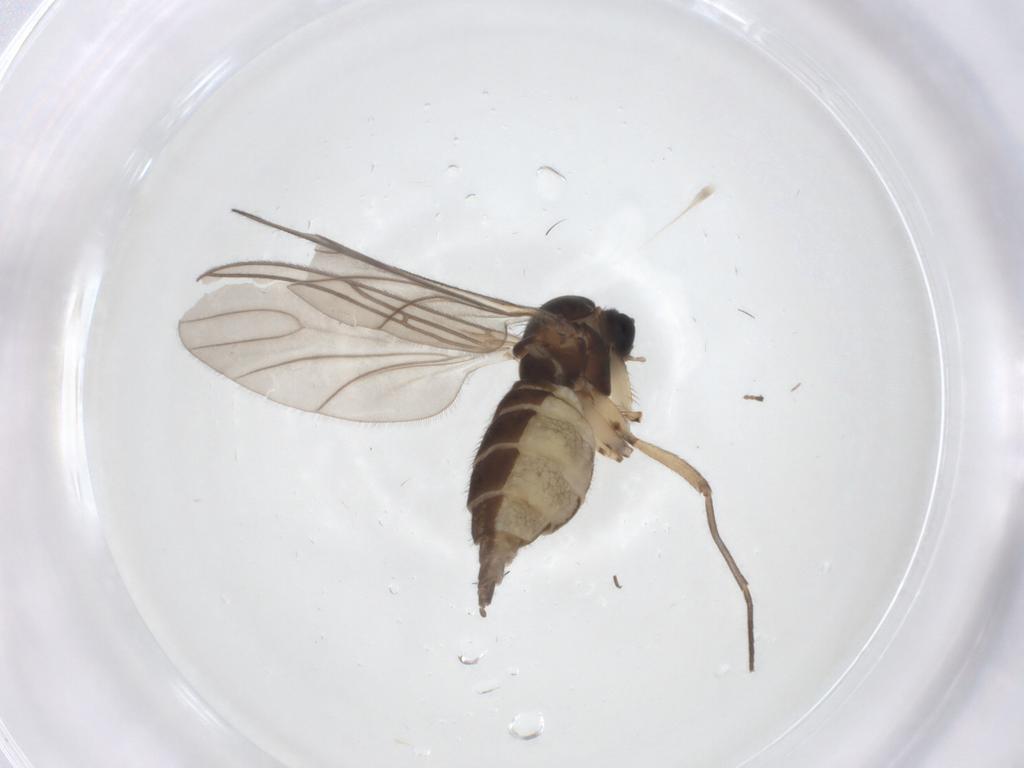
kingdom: Animalia
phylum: Arthropoda
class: Insecta
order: Diptera
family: Sciaridae
